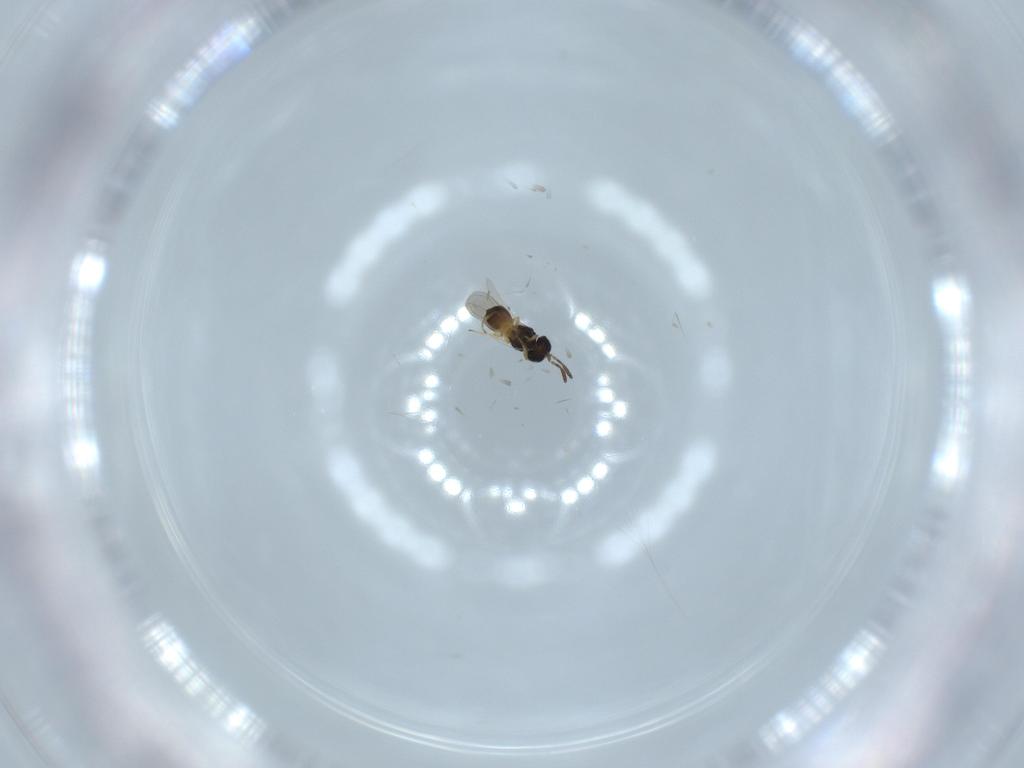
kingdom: Animalia
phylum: Arthropoda
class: Insecta
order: Hymenoptera
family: Scelionidae
